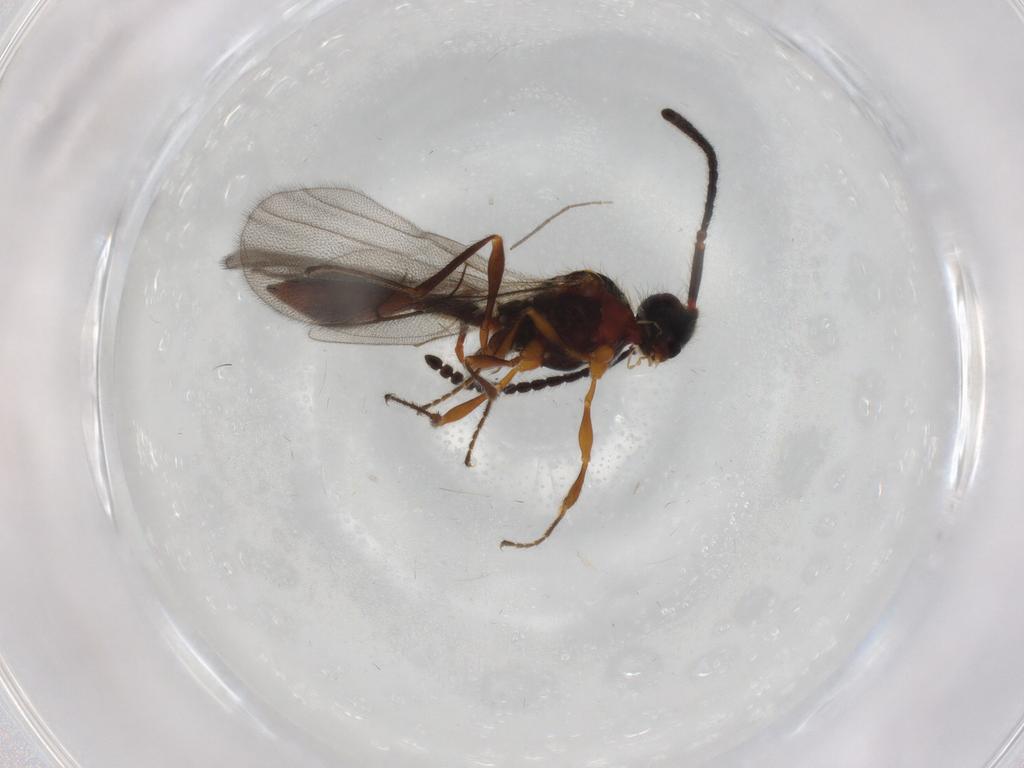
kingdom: Animalia
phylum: Arthropoda
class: Insecta
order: Hymenoptera
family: Diapriidae
